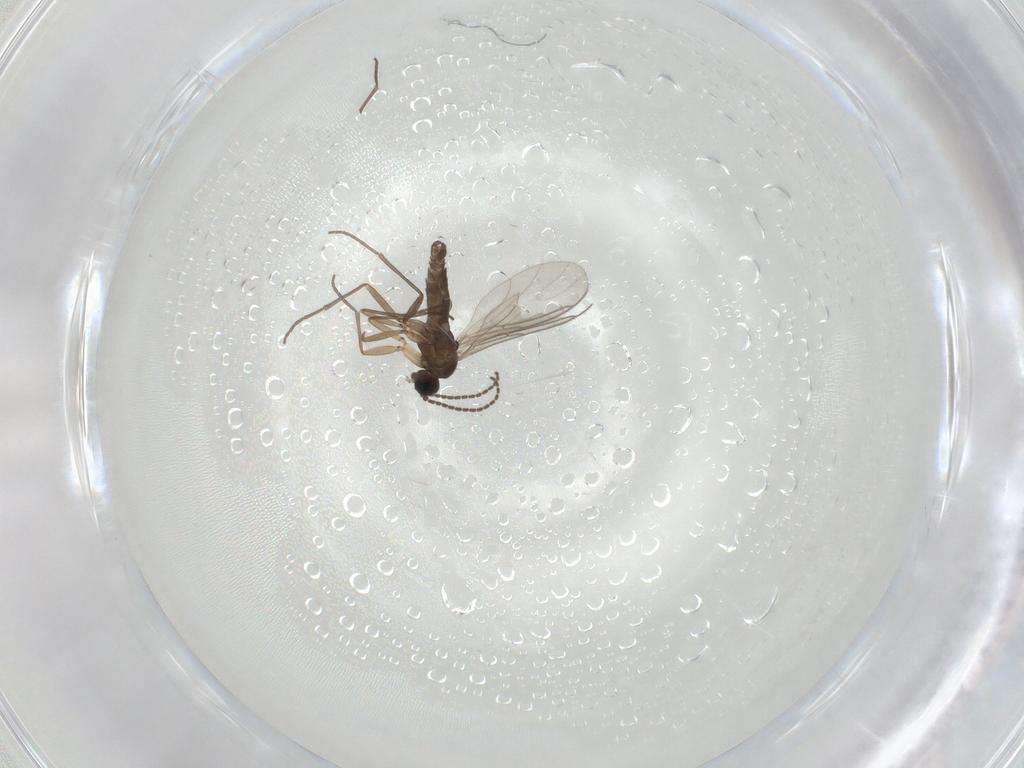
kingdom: Animalia
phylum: Arthropoda
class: Insecta
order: Diptera
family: Sciaridae
